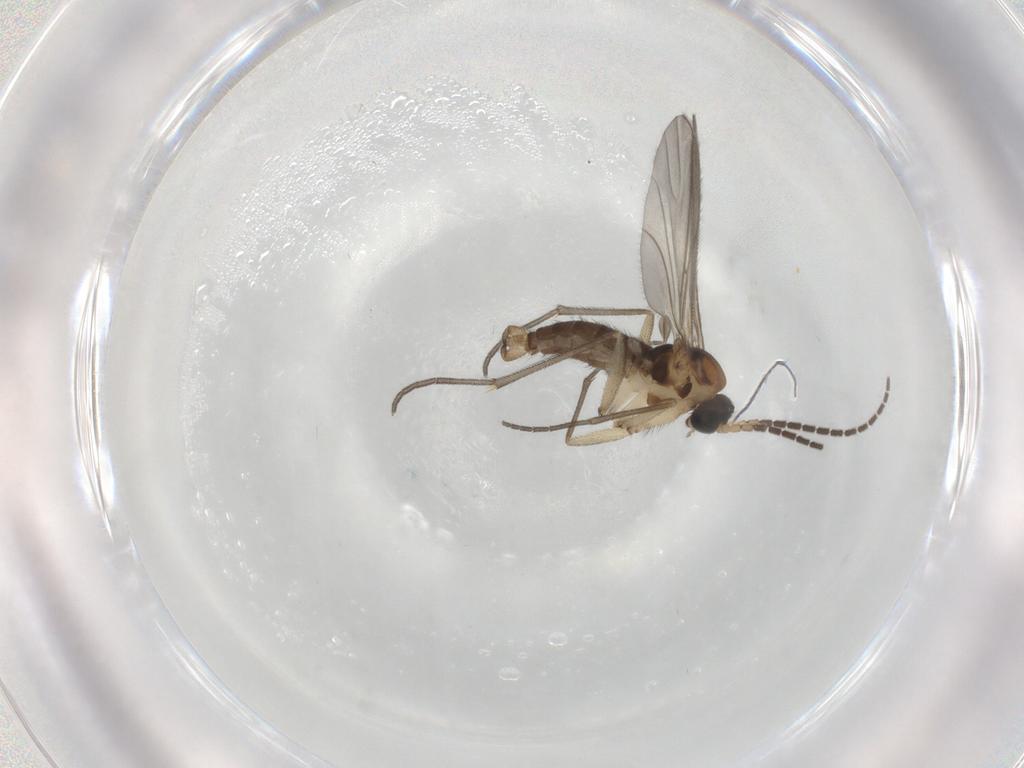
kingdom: Animalia
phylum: Arthropoda
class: Insecta
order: Diptera
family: Sciaridae
